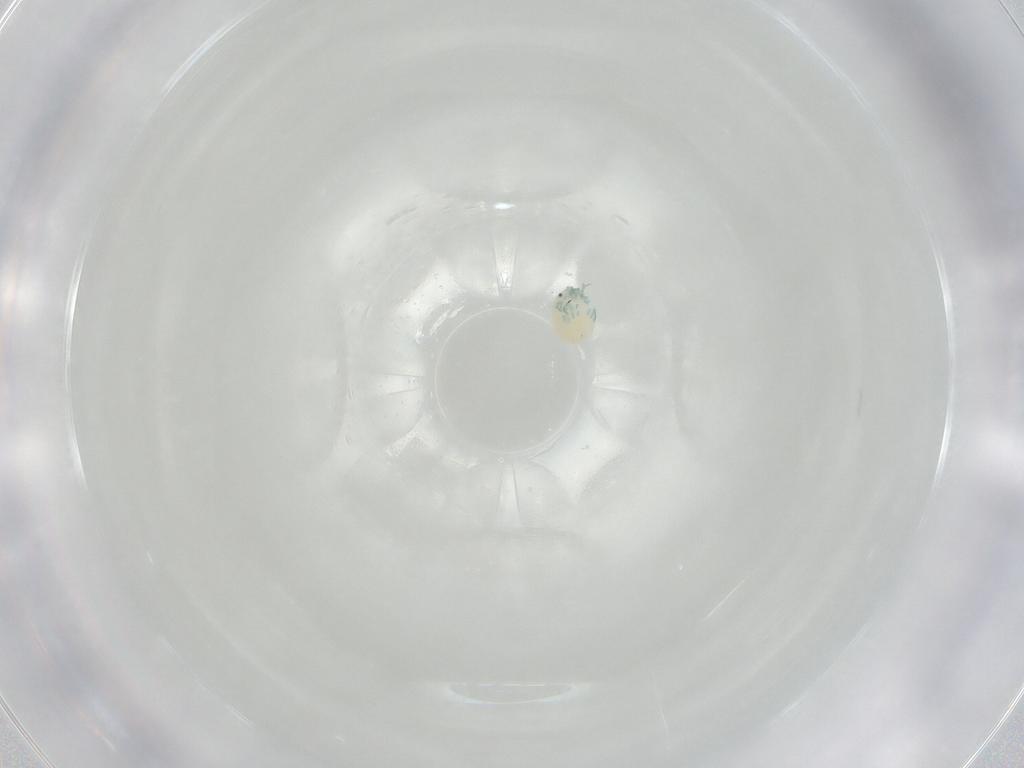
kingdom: Animalia
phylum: Arthropoda
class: Arachnida
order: Trombidiformes
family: Arrenuridae
